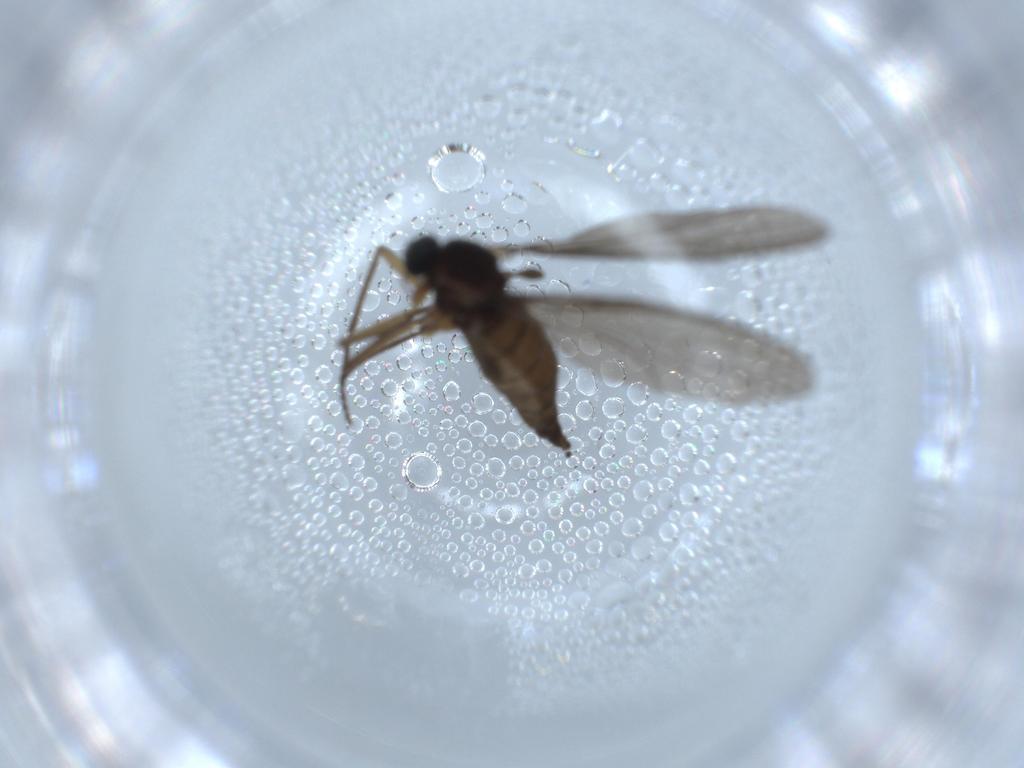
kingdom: Animalia
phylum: Arthropoda
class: Insecta
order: Diptera
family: Sciaridae
